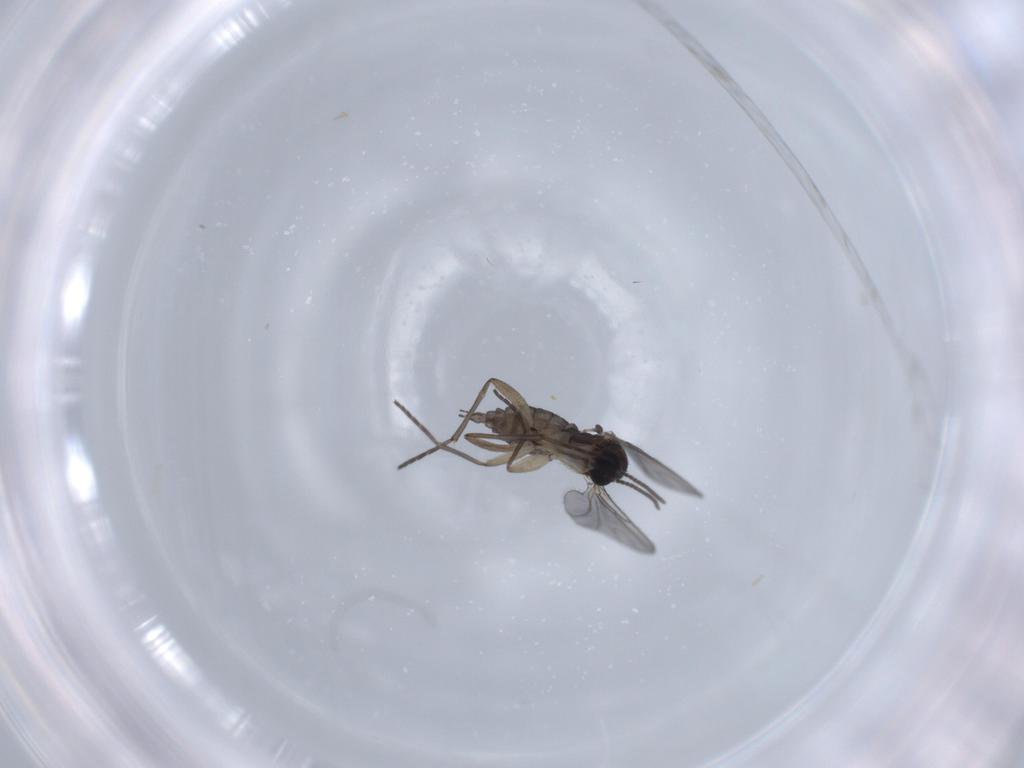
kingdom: Animalia
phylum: Arthropoda
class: Insecta
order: Diptera
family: Sciaridae
